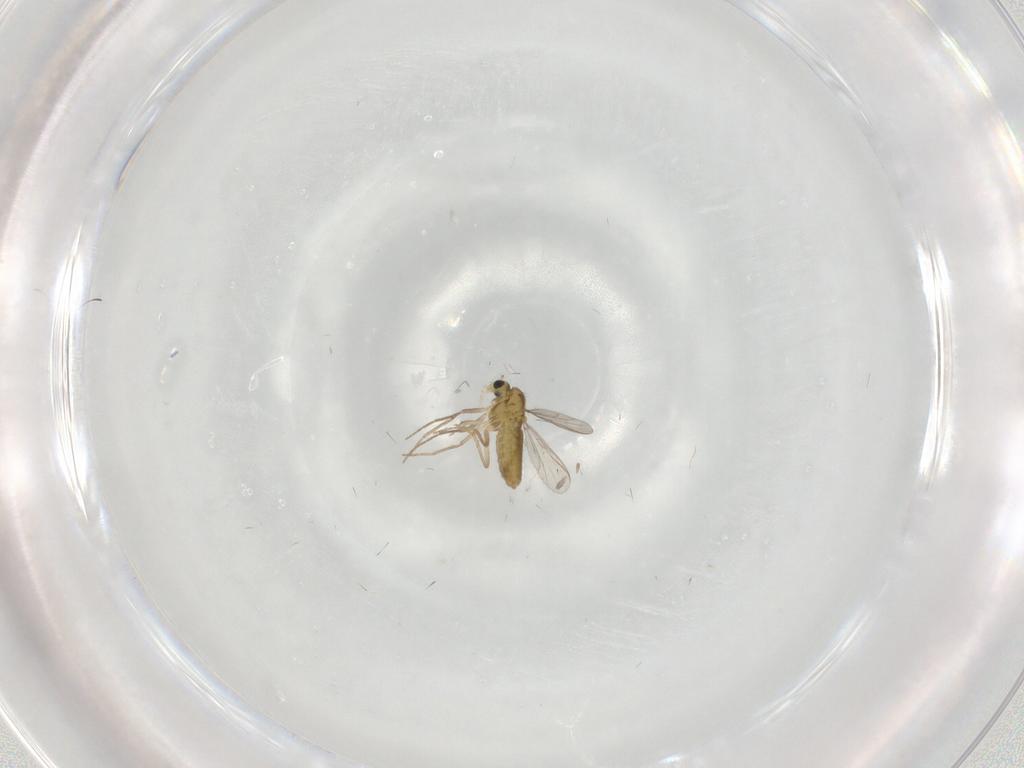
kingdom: Animalia
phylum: Arthropoda
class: Insecta
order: Diptera
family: Chironomidae
